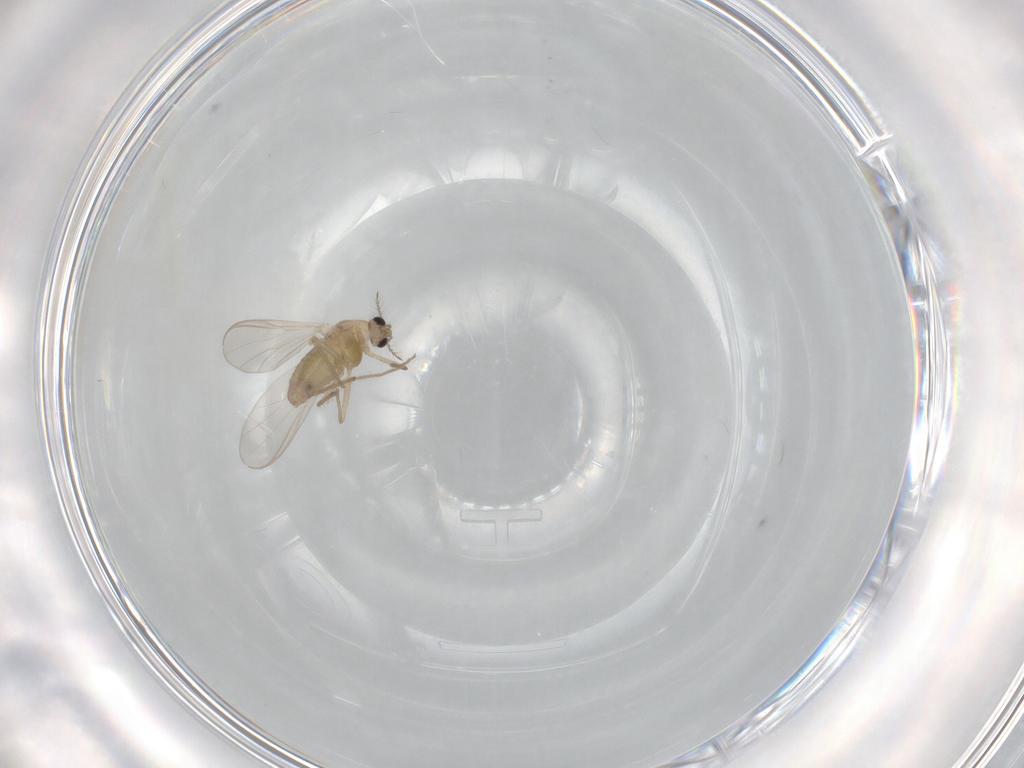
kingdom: Animalia
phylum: Arthropoda
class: Insecta
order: Diptera
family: Chironomidae
